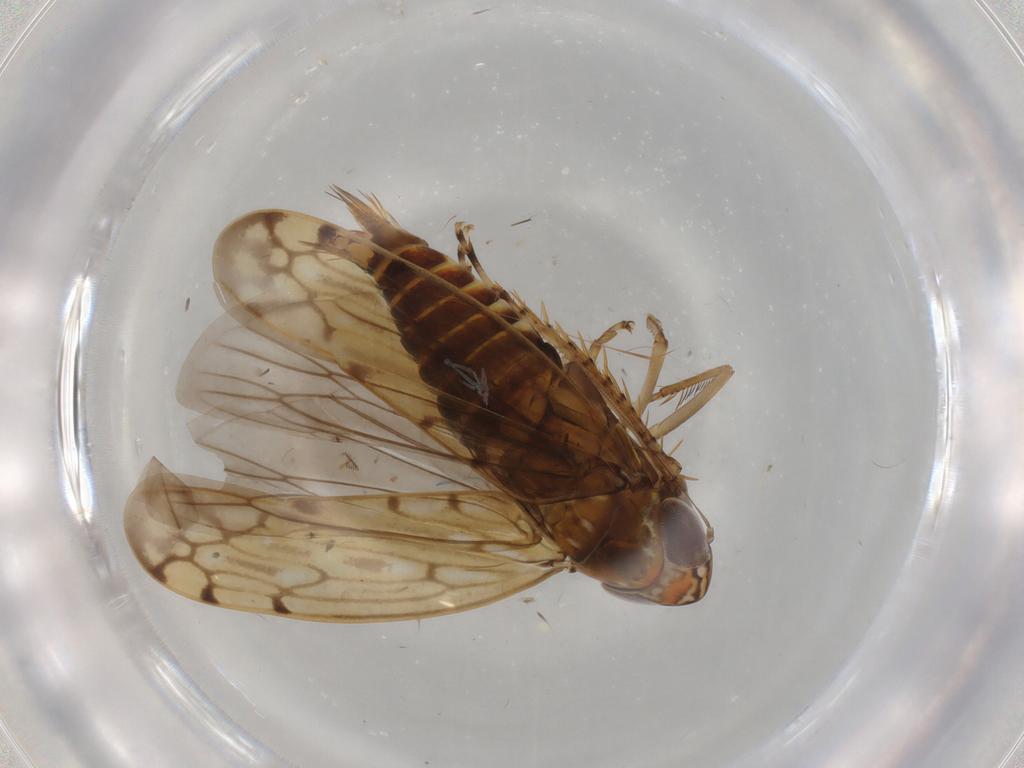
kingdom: Animalia
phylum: Arthropoda
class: Insecta
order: Hemiptera
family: Cicadellidae
